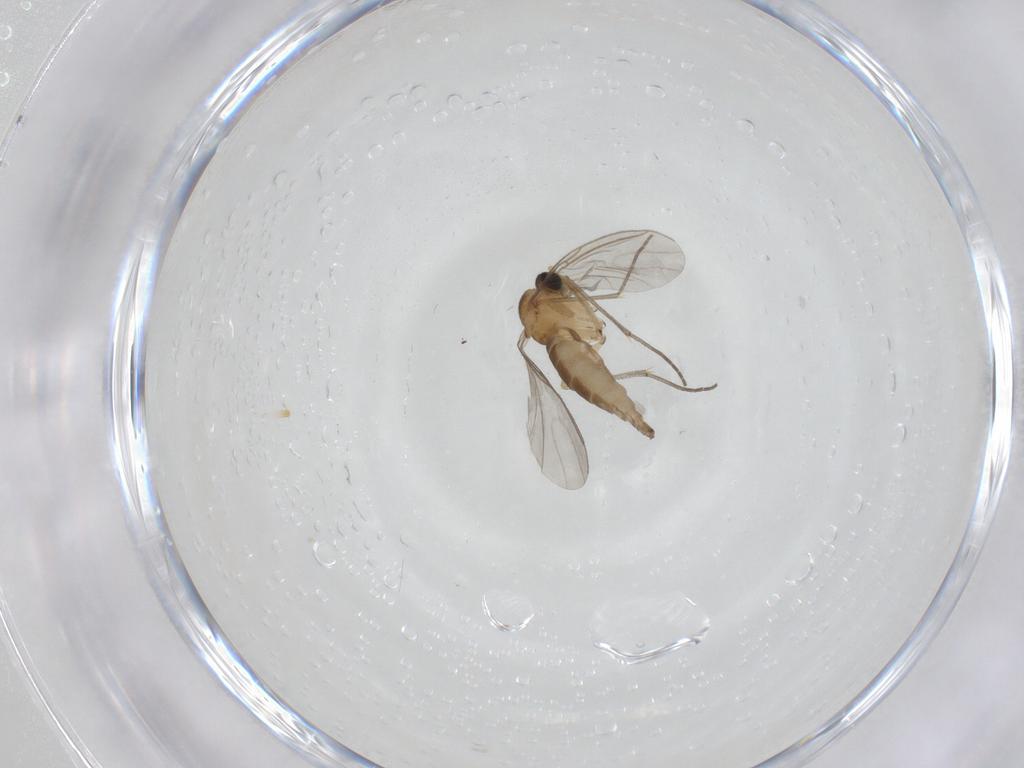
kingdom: Animalia
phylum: Arthropoda
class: Insecta
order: Diptera
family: Sciaridae
